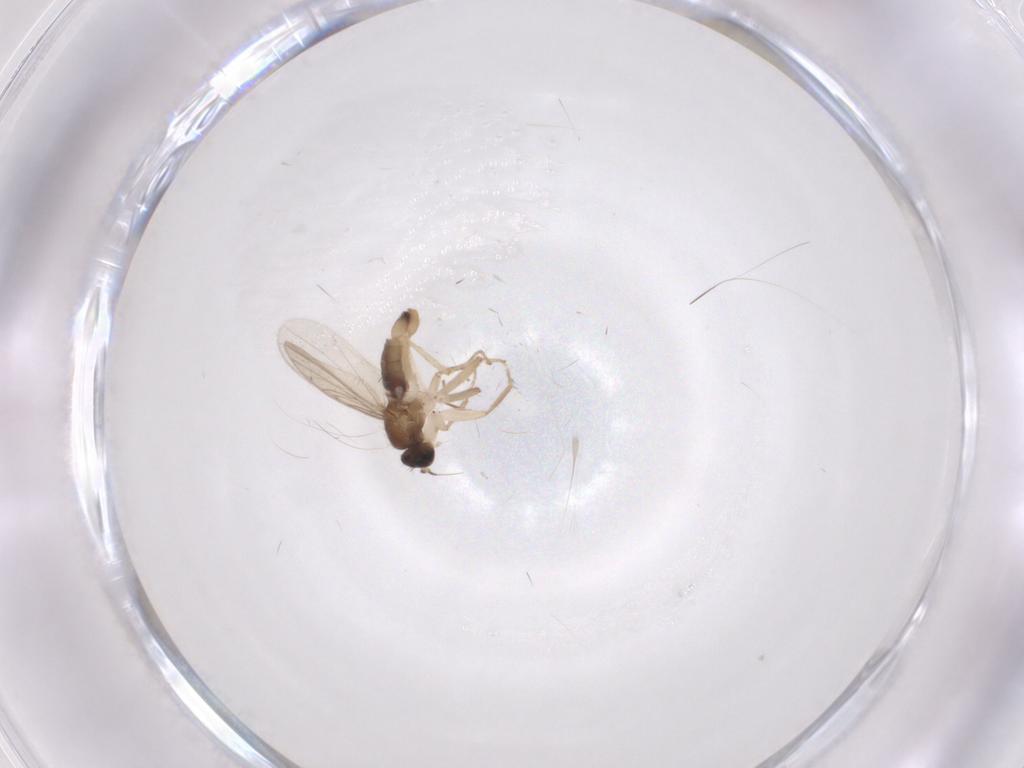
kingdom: Animalia
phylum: Arthropoda
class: Insecta
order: Diptera
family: Hybotidae
